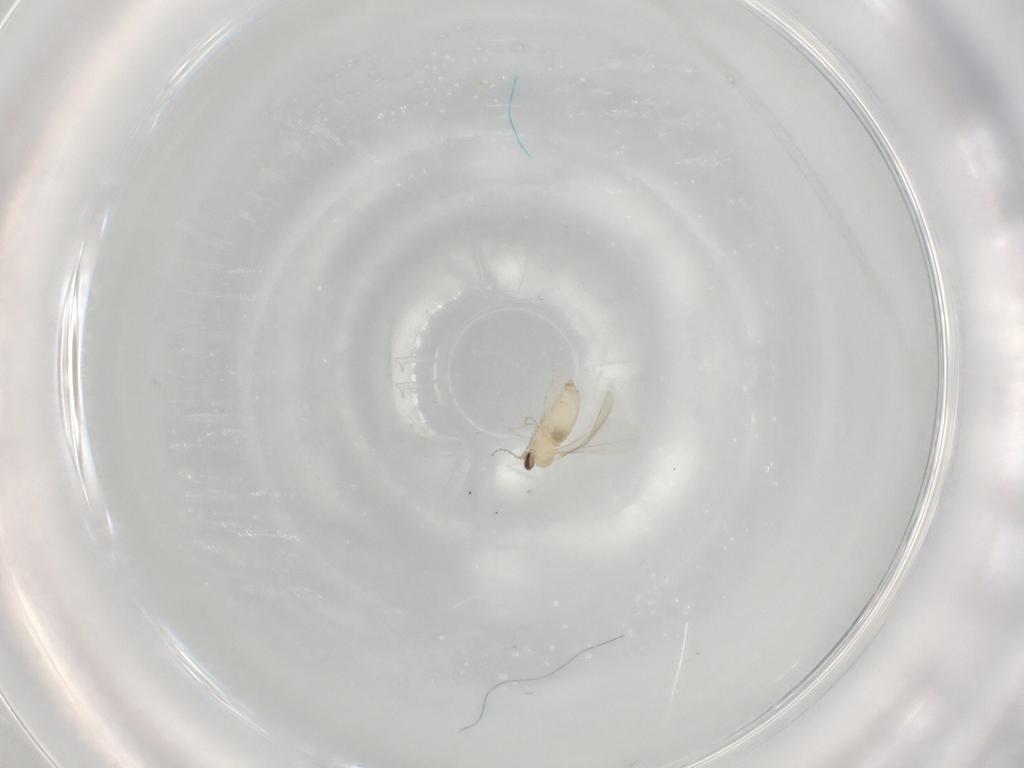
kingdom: Animalia
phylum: Arthropoda
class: Insecta
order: Diptera
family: Cecidomyiidae
